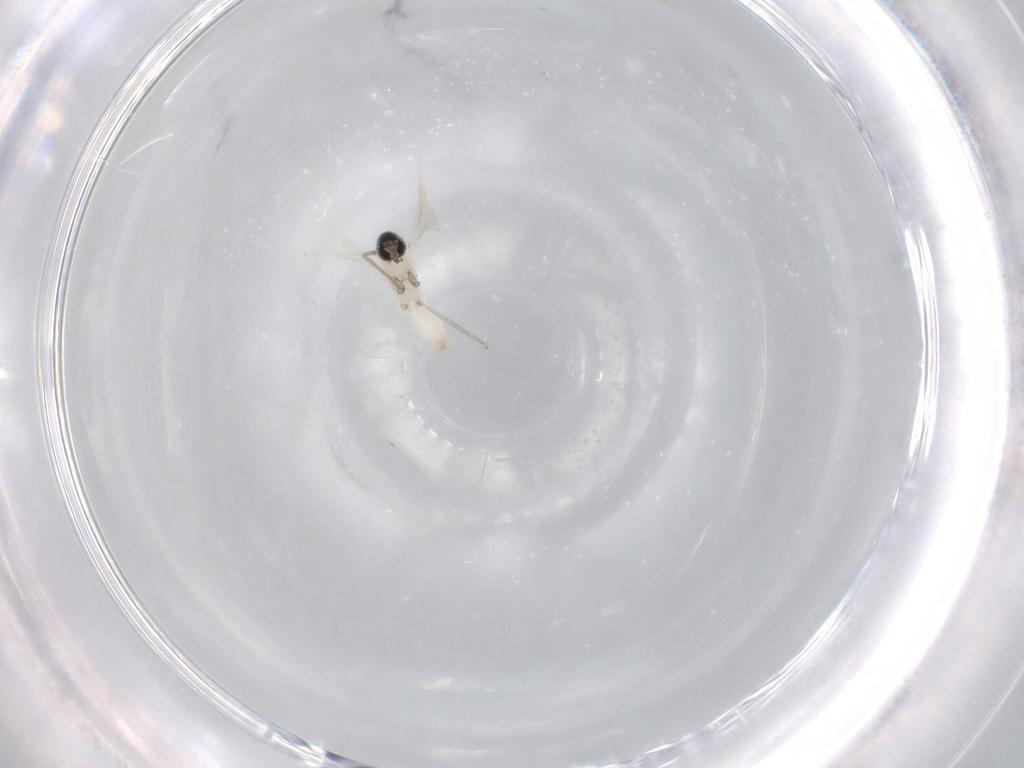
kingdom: Animalia
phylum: Arthropoda
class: Insecta
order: Diptera
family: Cecidomyiidae
